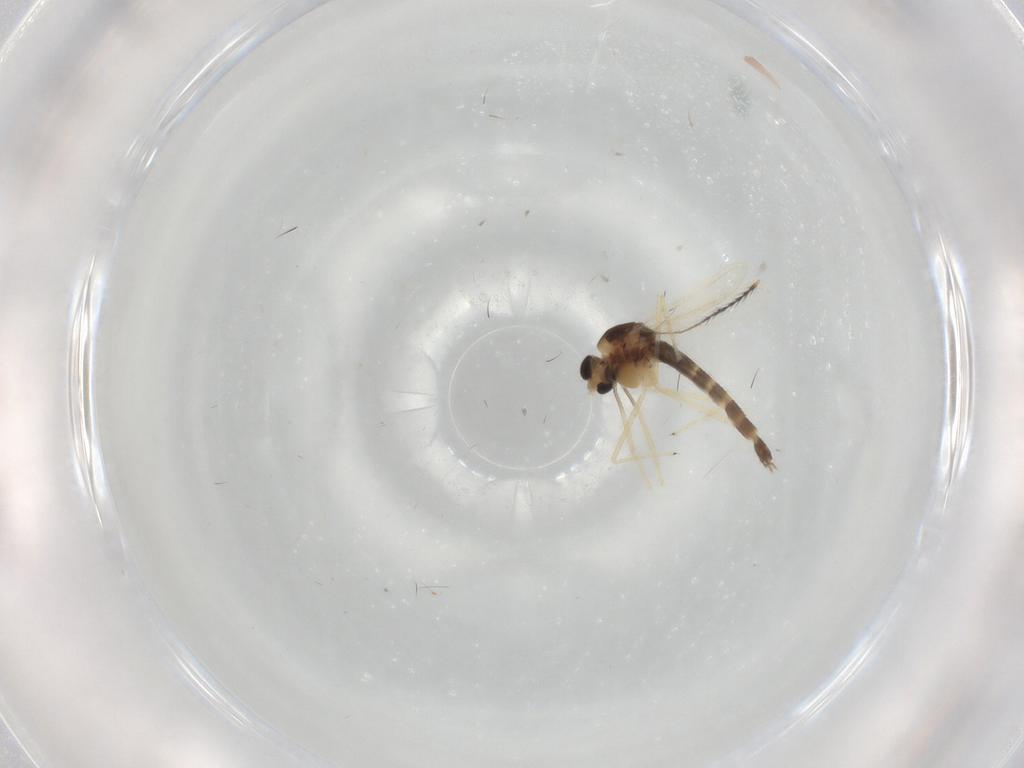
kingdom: Animalia
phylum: Arthropoda
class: Insecta
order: Diptera
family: Chironomidae
